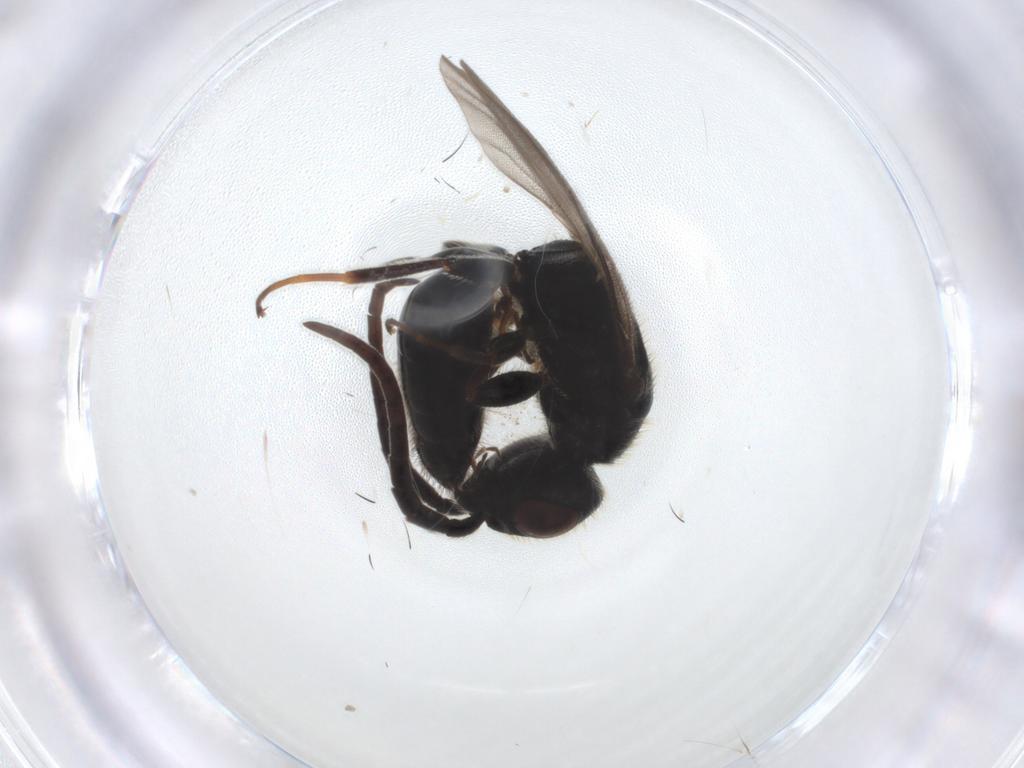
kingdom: Animalia
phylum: Arthropoda
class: Insecta
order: Hymenoptera
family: Bethylidae
